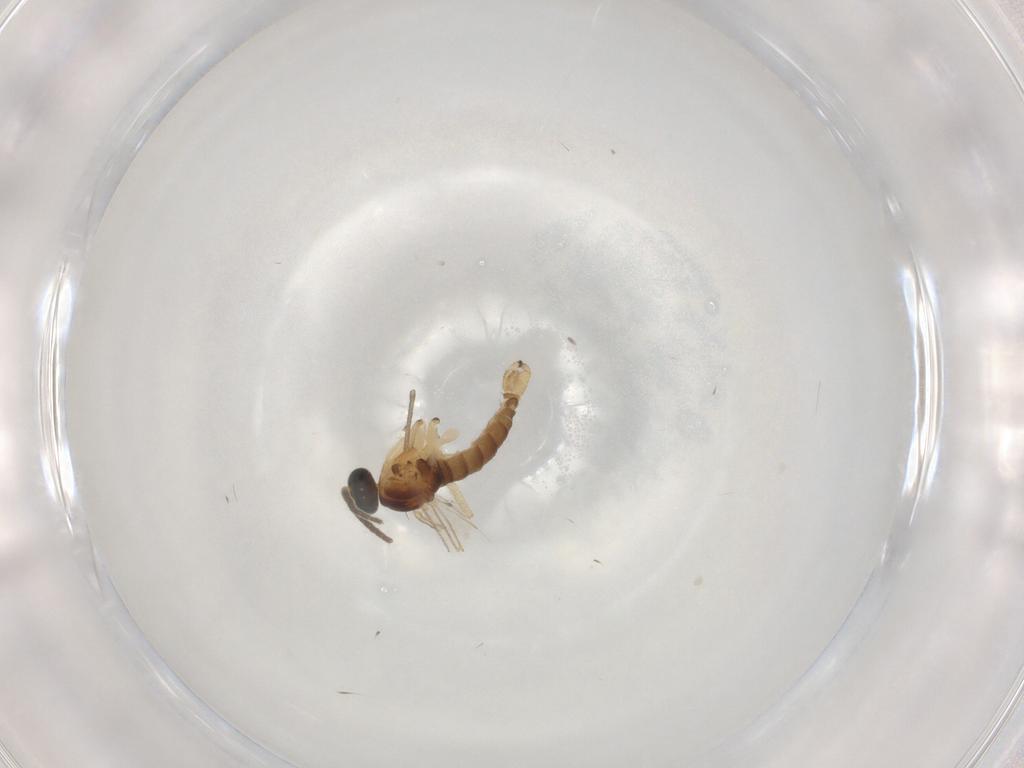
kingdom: Animalia
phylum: Arthropoda
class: Insecta
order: Diptera
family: Sciaridae
